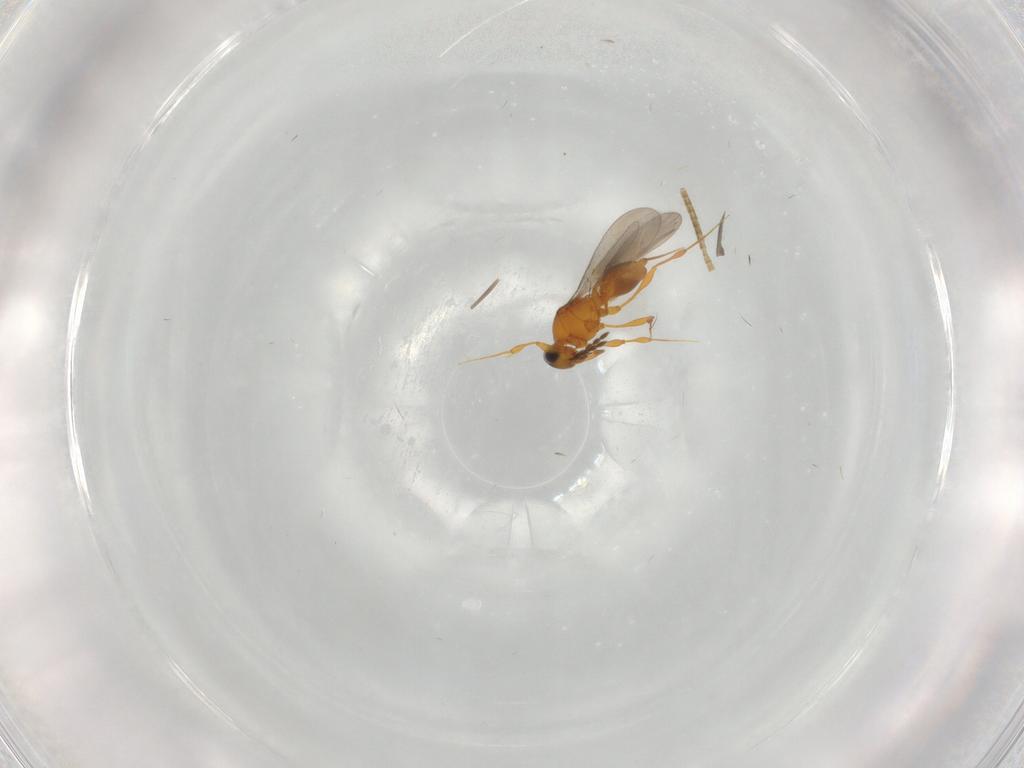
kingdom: Animalia
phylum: Arthropoda
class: Insecta
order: Hymenoptera
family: Platygastridae
